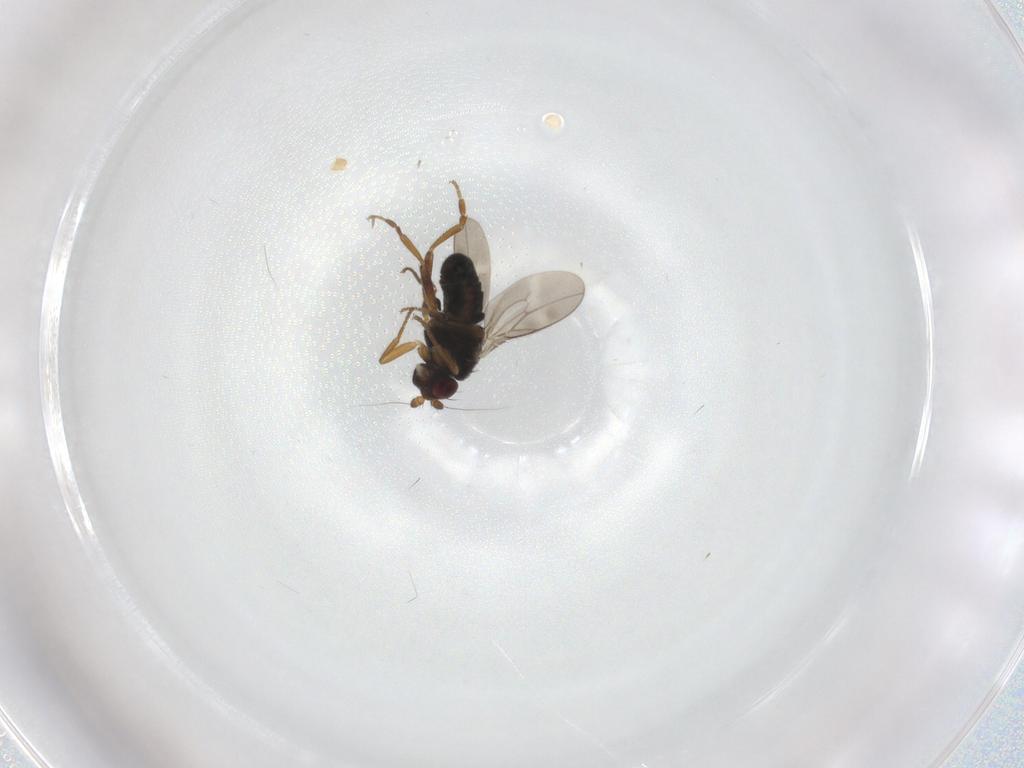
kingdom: Animalia
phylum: Arthropoda
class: Insecta
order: Diptera
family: Sphaeroceridae
